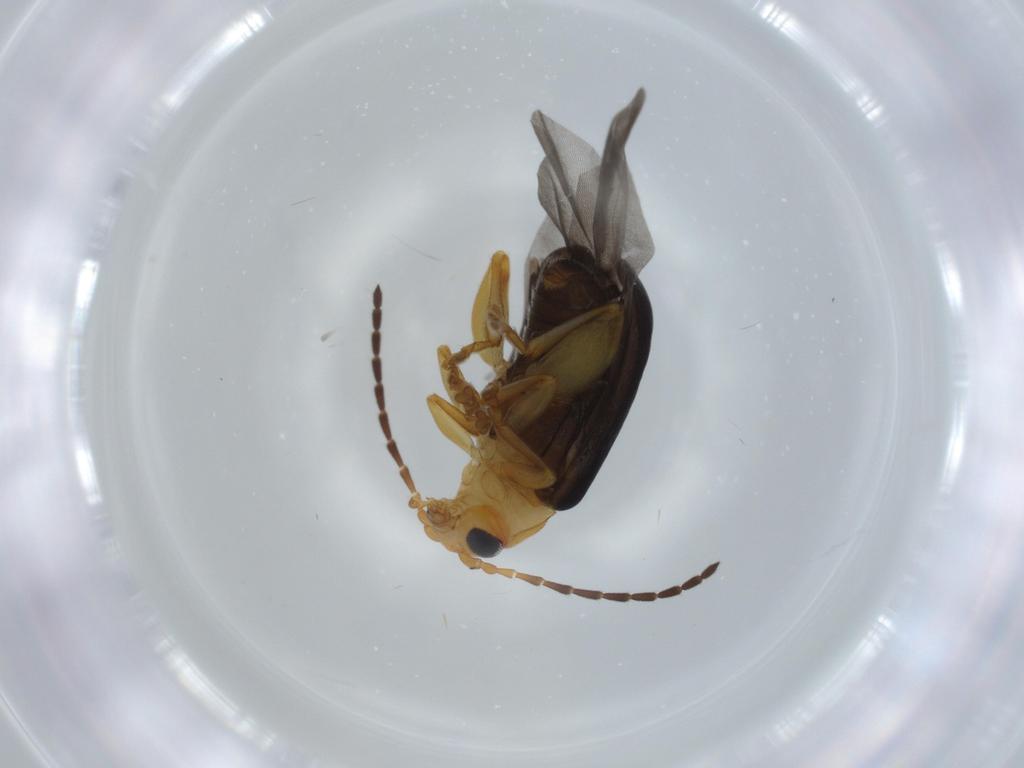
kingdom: Animalia
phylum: Arthropoda
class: Insecta
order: Coleoptera
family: Chrysomelidae
